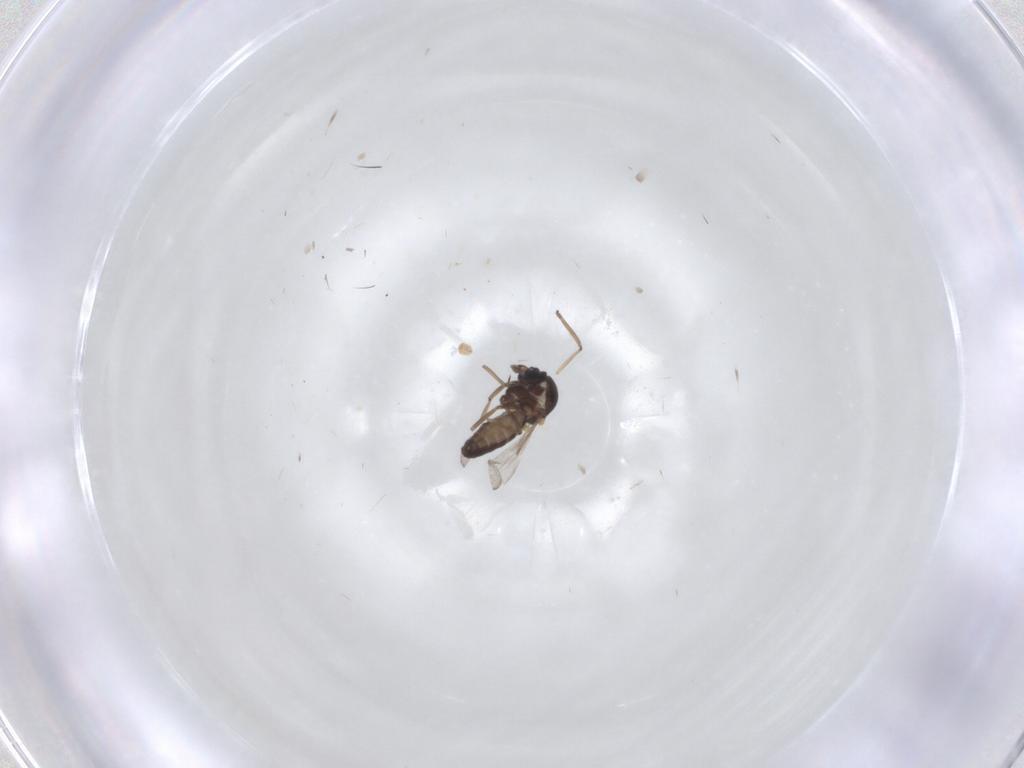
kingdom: Animalia
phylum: Arthropoda
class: Insecta
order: Diptera
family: Ceratopogonidae
